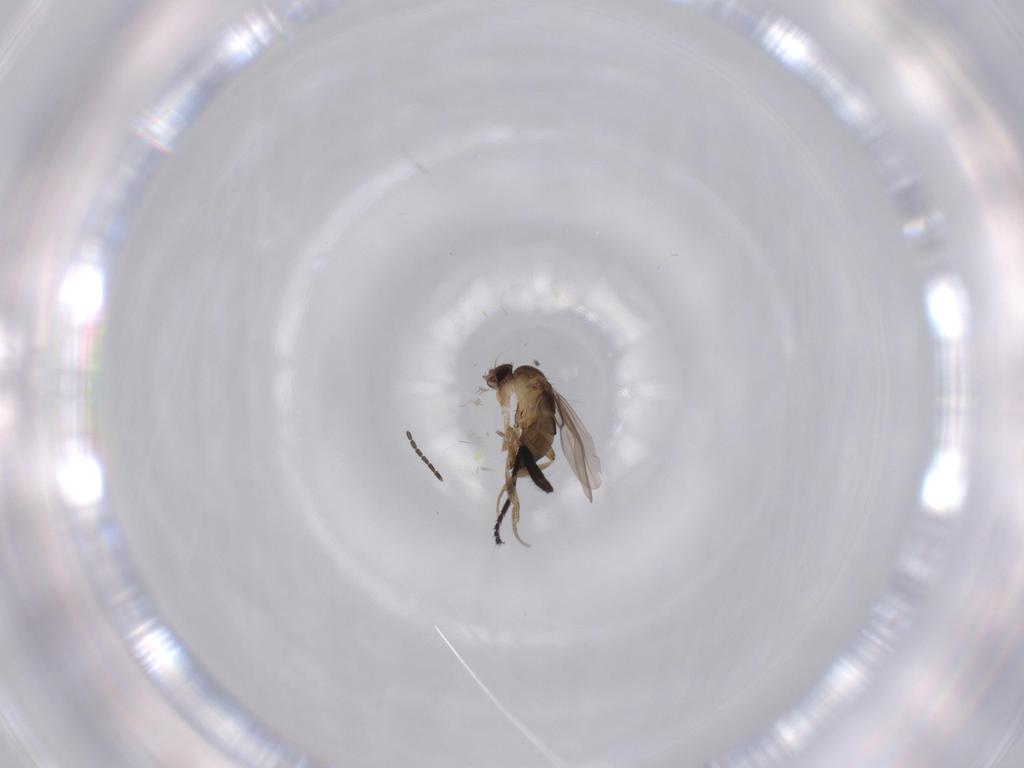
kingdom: Animalia
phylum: Arthropoda
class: Insecta
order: Diptera
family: Phoridae
